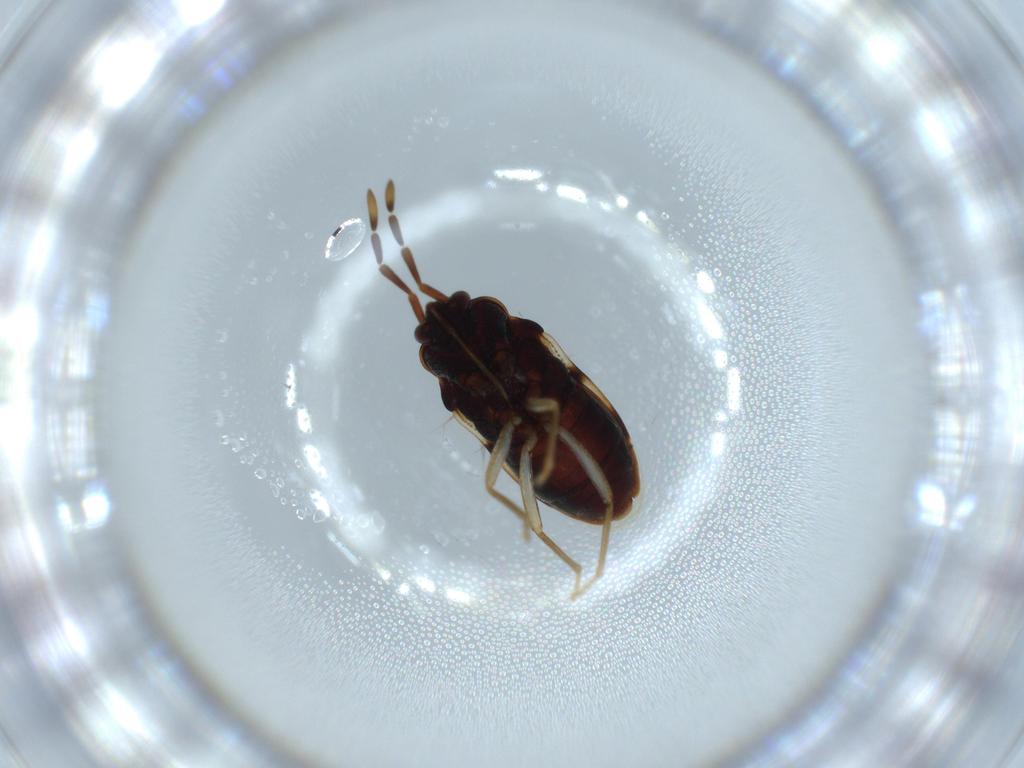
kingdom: Animalia
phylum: Arthropoda
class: Insecta
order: Hemiptera
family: Rhyparochromidae
